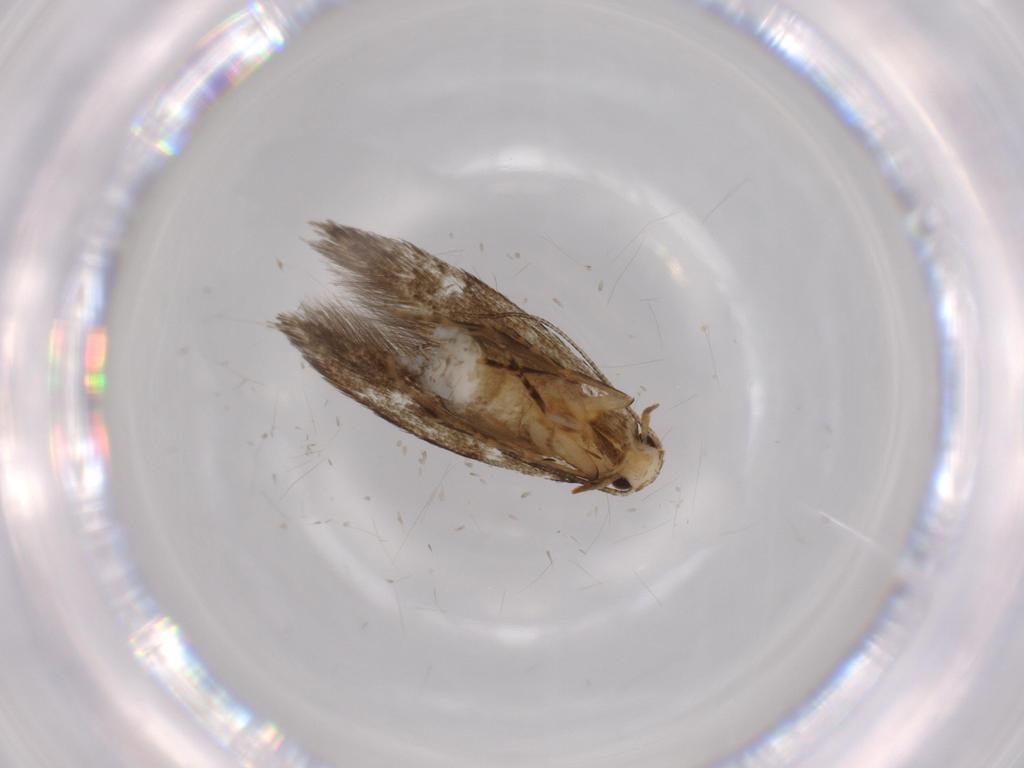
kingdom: Animalia
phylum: Arthropoda
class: Insecta
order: Lepidoptera
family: Tineidae
